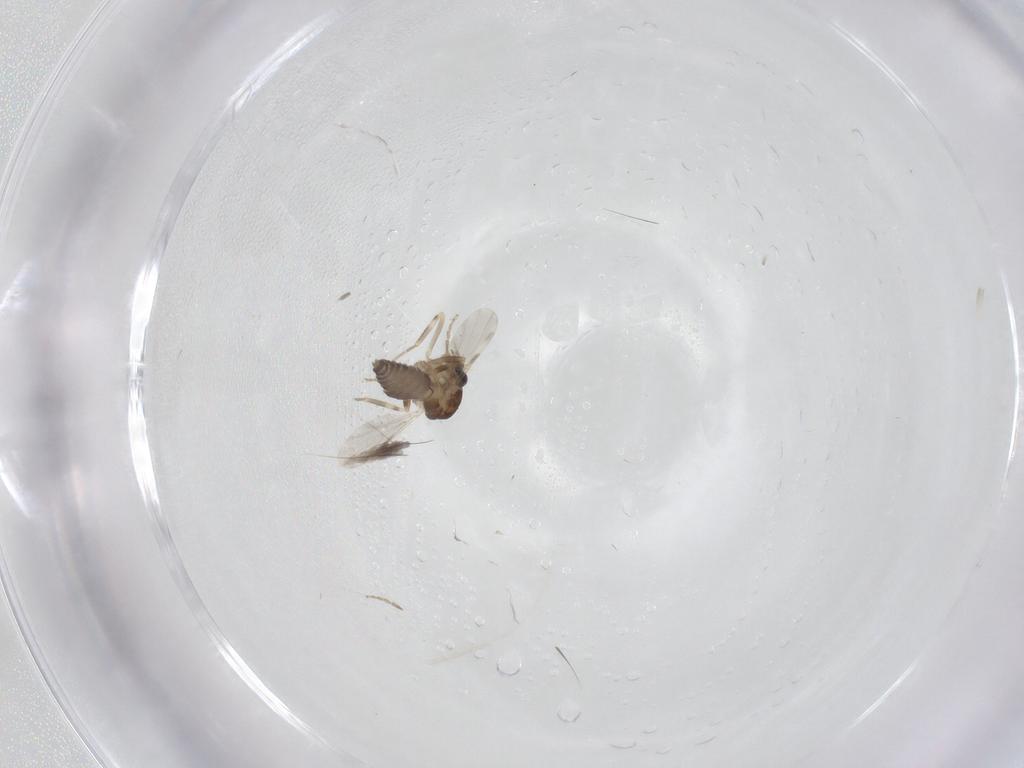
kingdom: Animalia
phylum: Arthropoda
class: Insecta
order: Diptera
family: Ceratopogonidae
